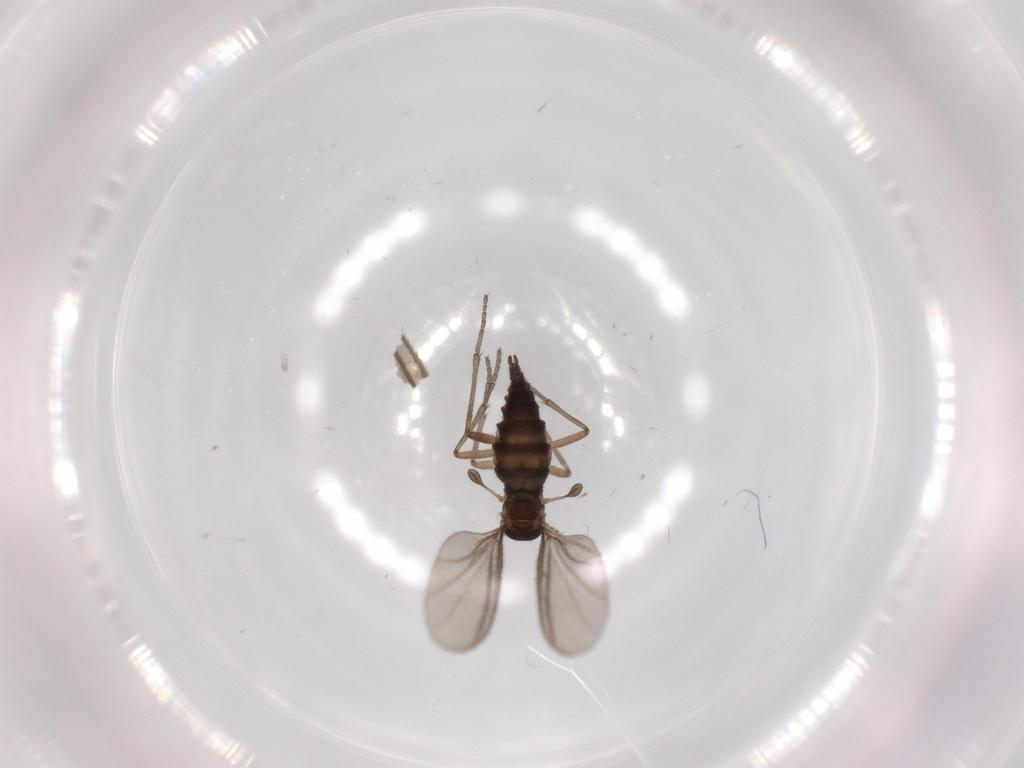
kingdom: Animalia
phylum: Arthropoda
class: Insecta
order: Diptera
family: Sciaridae
